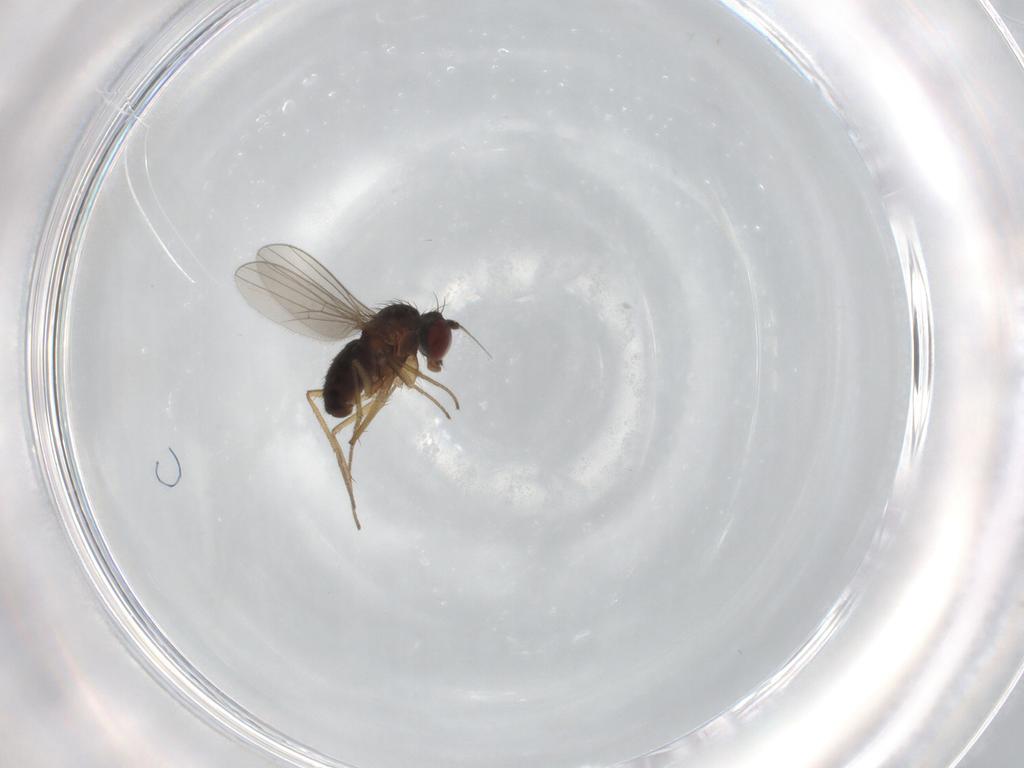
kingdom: Animalia
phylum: Arthropoda
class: Insecta
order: Diptera
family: Dolichopodidae
